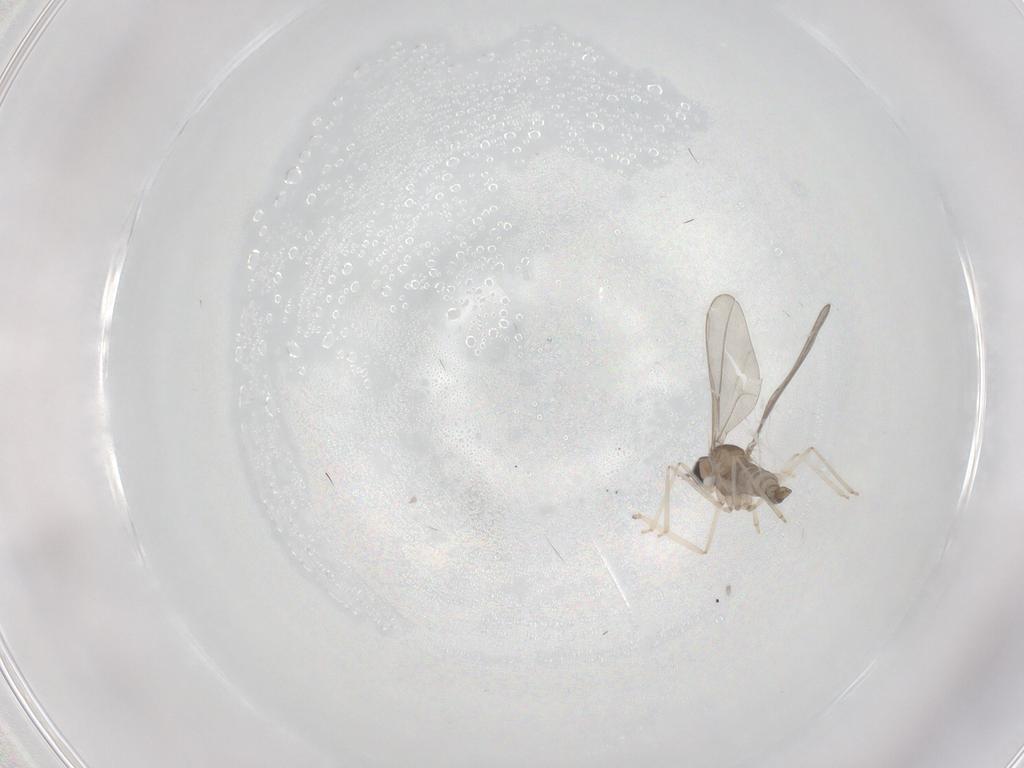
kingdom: Animalia
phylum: Arthropoda
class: Insecta
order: Diptera
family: Cecidomyiidae
